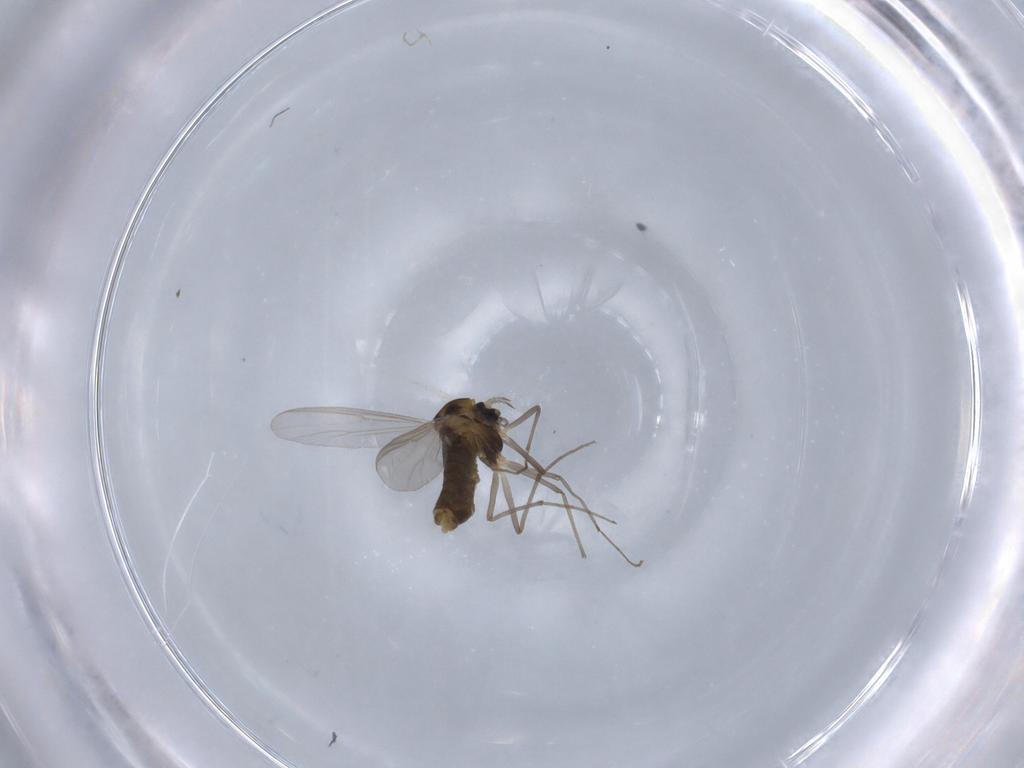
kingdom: Animalia
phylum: Arthropoda
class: Insecta
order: Diptera
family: Chironomidae
